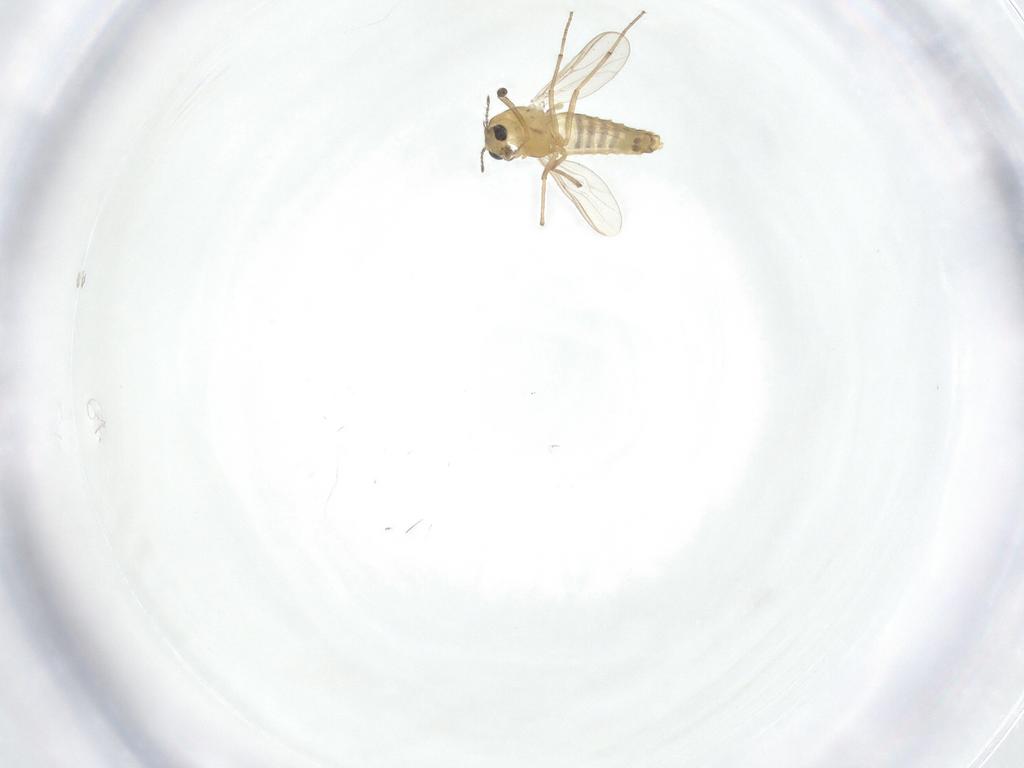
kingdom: Animalia
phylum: Arthropoda
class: Insecta
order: Diptera
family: Chironomidae
